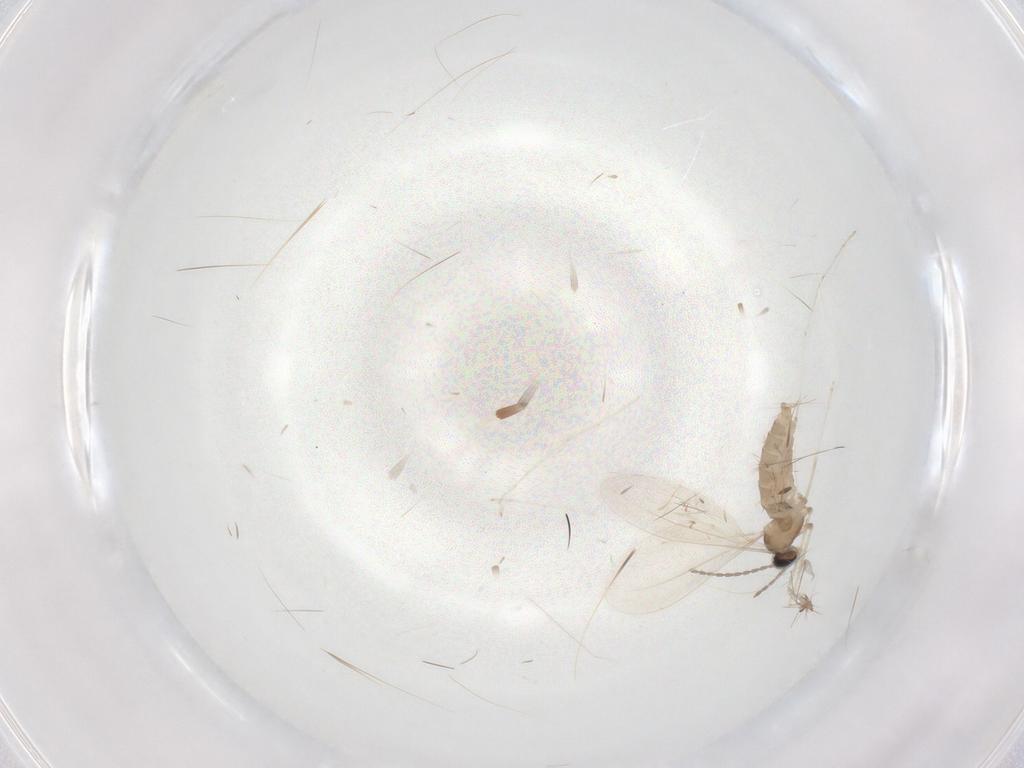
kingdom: Animalia
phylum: Arthropoda
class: Insecta
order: Diptera
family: Cecidomyiidae
